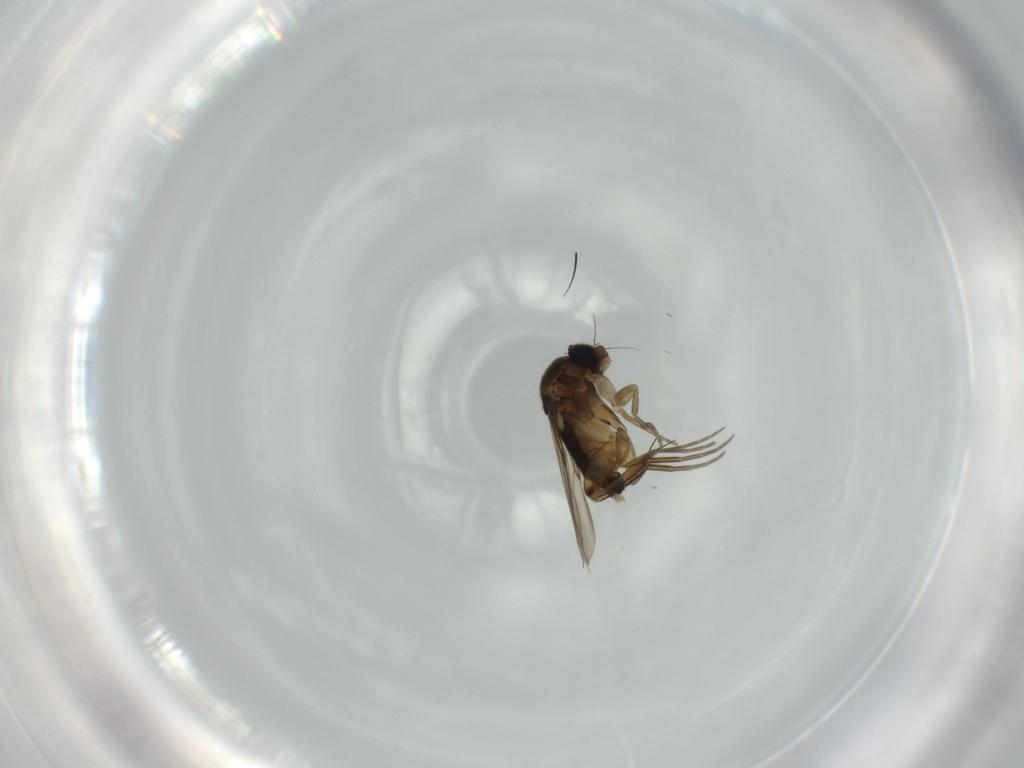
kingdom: Animalia
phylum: Arthropoda
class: Insecta
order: Diptera
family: Phoridae
